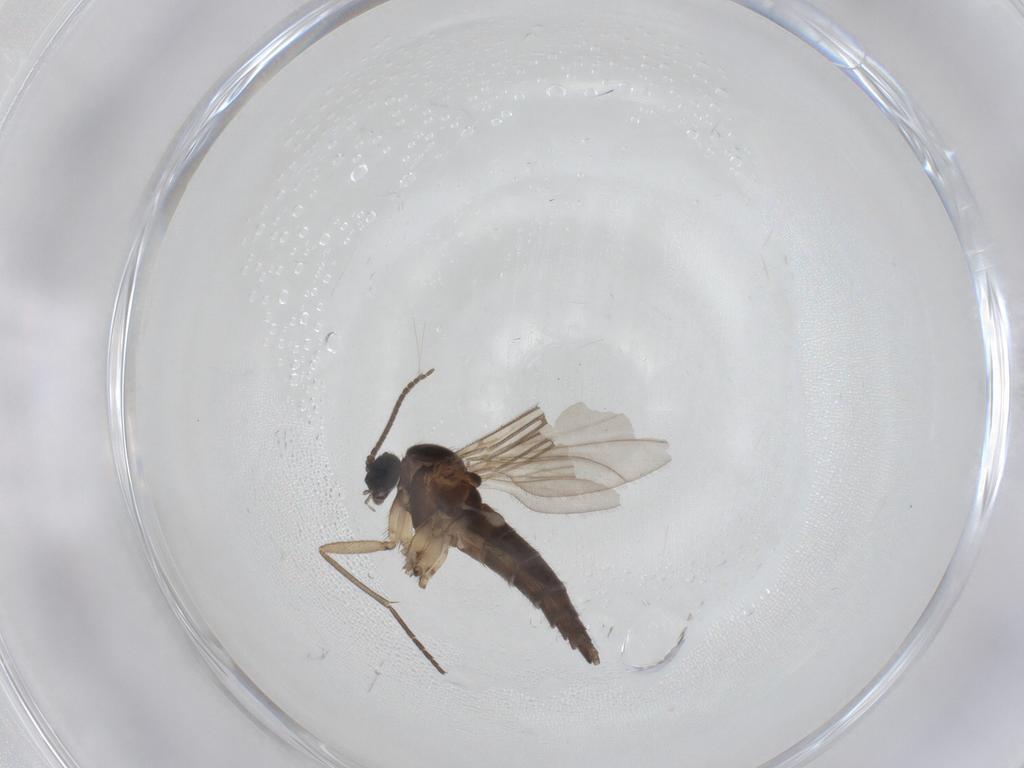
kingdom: Animalia
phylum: Arthropoda
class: Insecta
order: Diptera
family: Sciaridae
